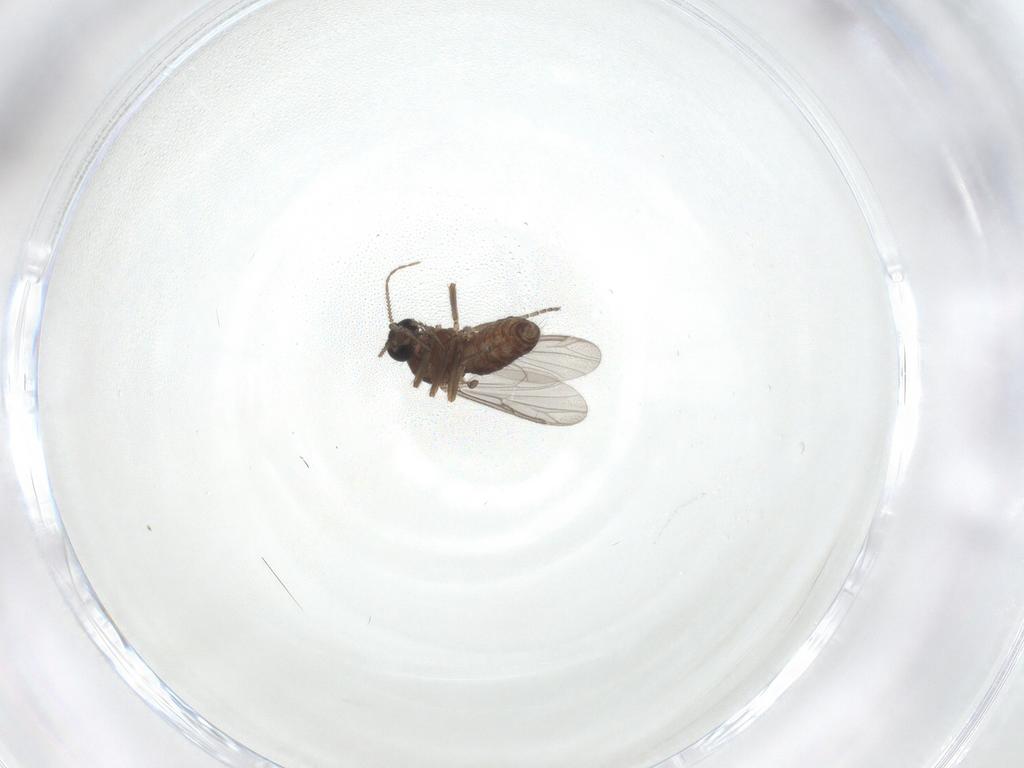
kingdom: Animalia
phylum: Arthropoda
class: Insecta
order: Diptera
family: Ceratopogonidae
